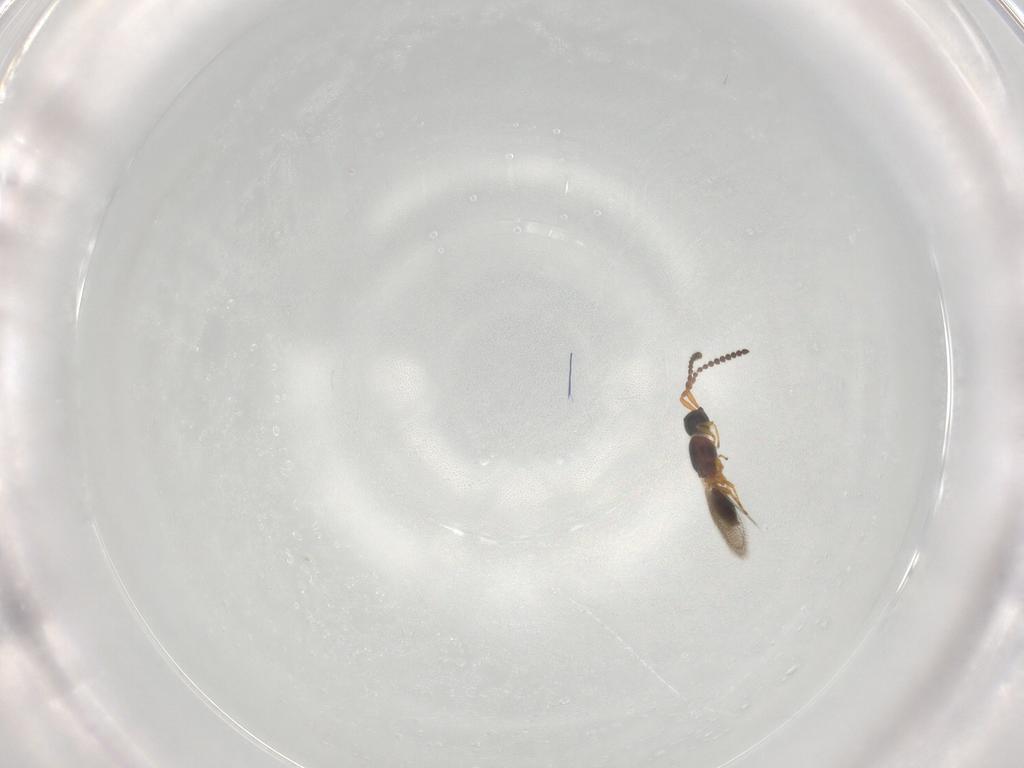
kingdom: Animalia
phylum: Arthropoda
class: Insecta
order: Hymenoptera
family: Diapriidae
